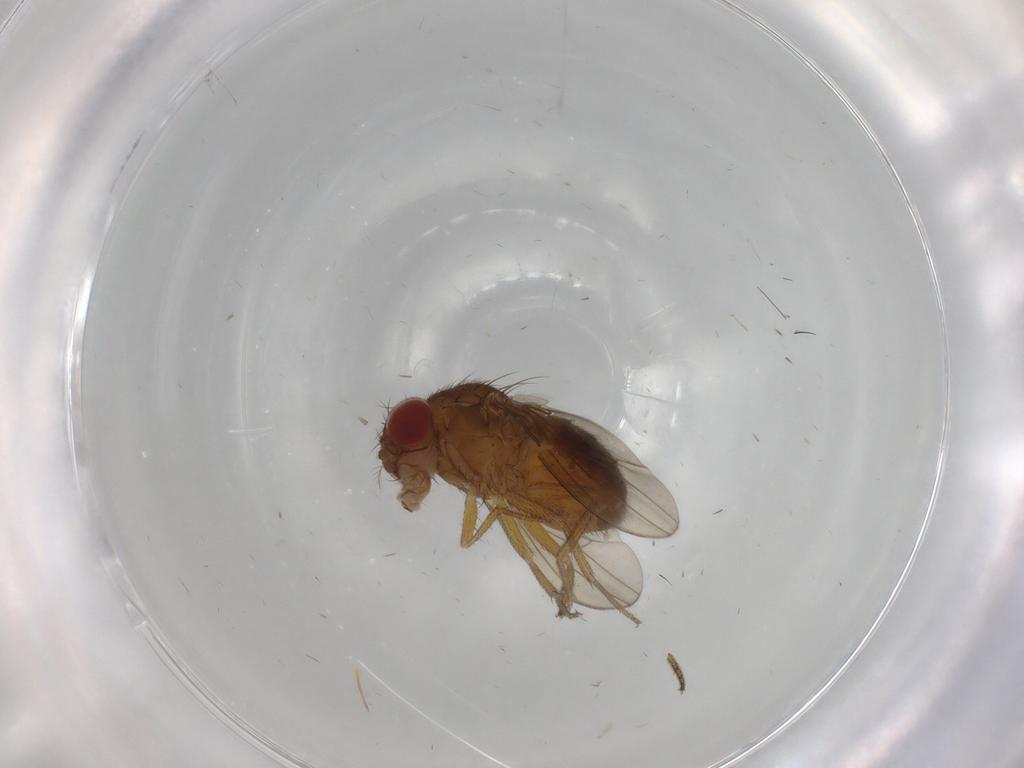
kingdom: Animalia
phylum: Arthropoda
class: Insecta
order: Diptera
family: Drosophilidae
